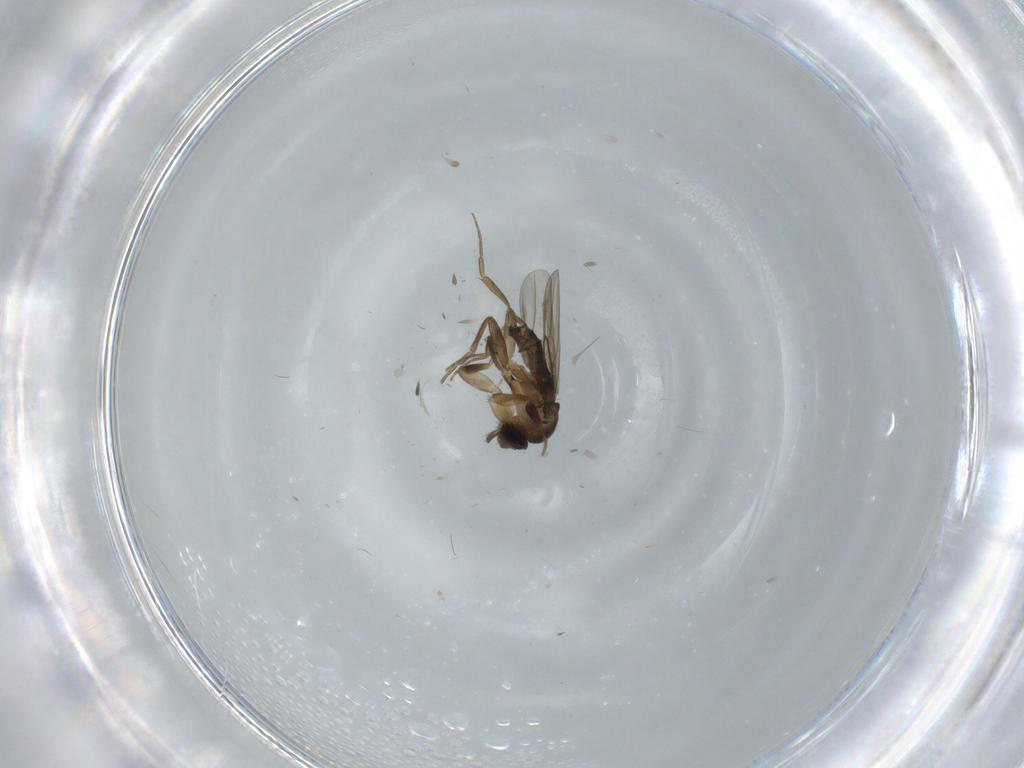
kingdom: Animalia
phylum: Arthropoda
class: Insecta
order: Diptera
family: Phoridae
